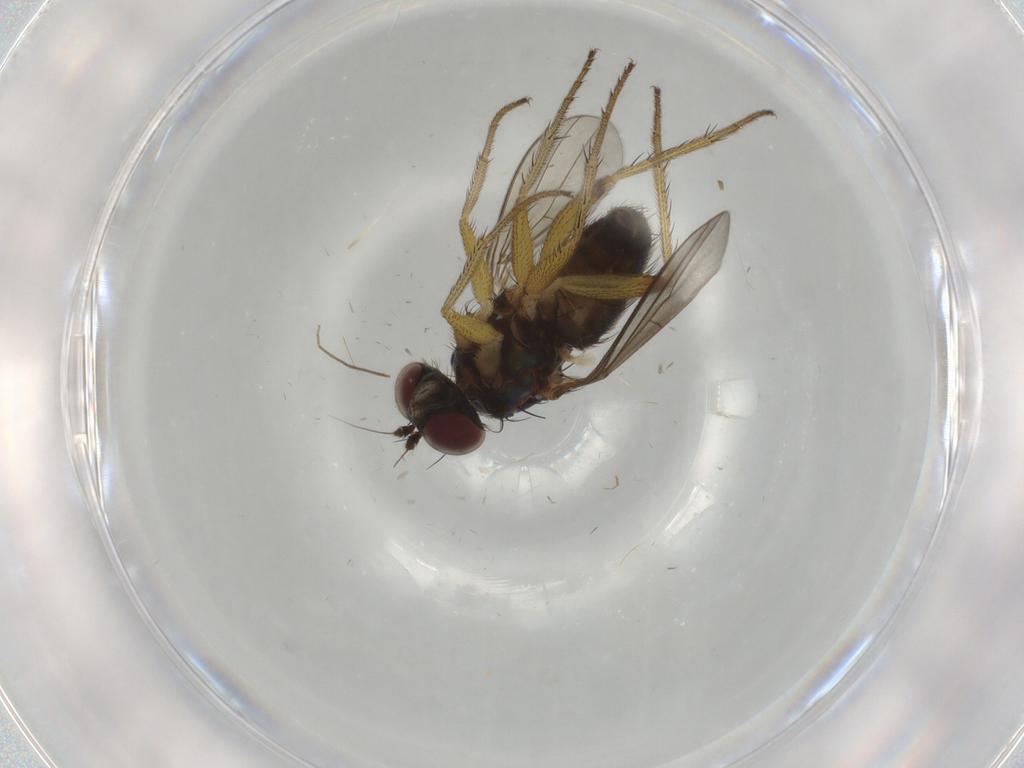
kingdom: Animalia
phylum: Arthropoda
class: Insecta
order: Diptera
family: Dolichopodidae
